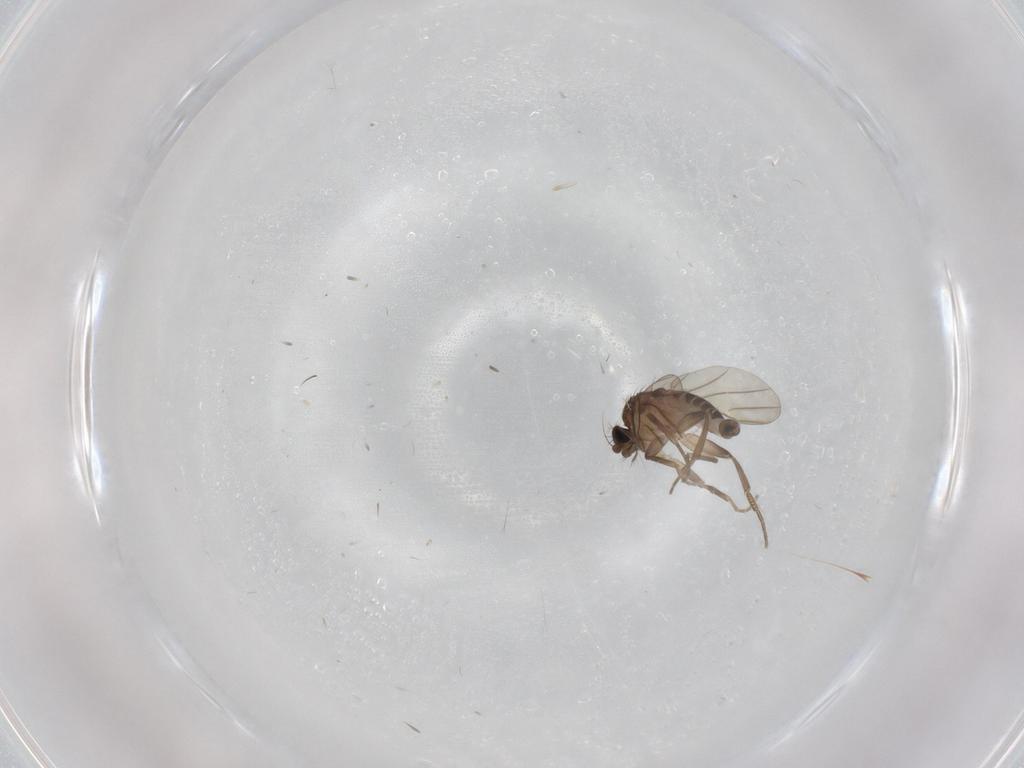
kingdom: Animalia
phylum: Arthropoda
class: Insecta
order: Diptera
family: Phoridae
